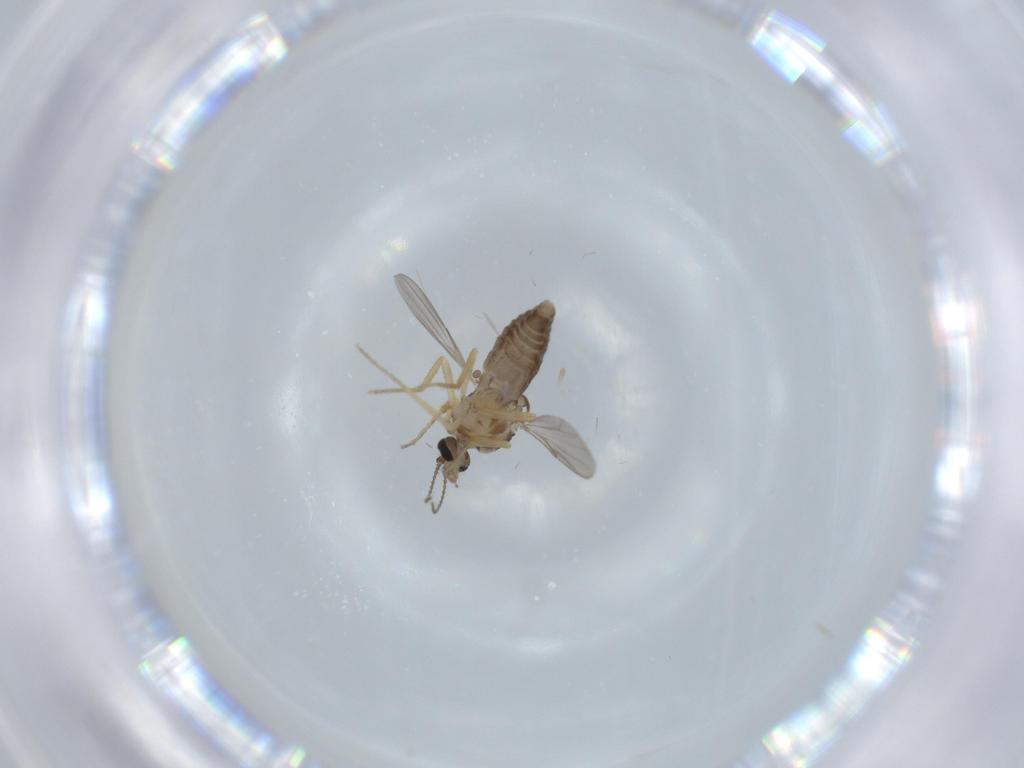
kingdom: Animalia
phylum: Arthropoda
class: Insecta
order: Diptera
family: Ceratopogonidae
